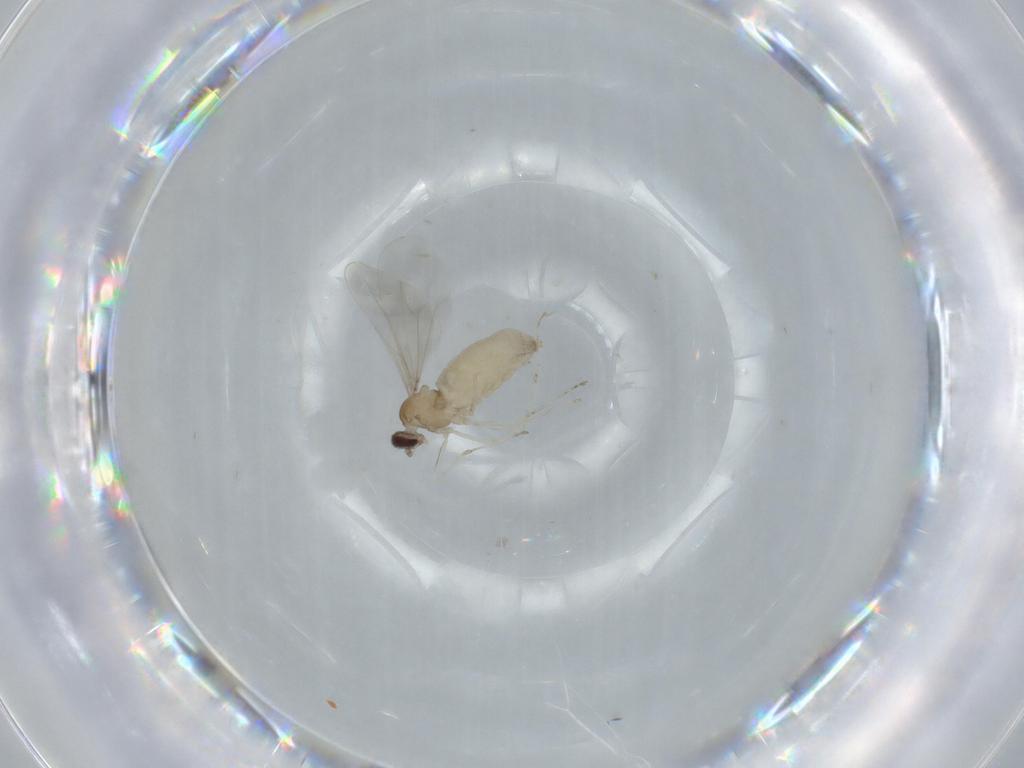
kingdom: Animalia
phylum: Arthropoda
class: Insecta
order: Diptera
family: Cecidomyiidae
